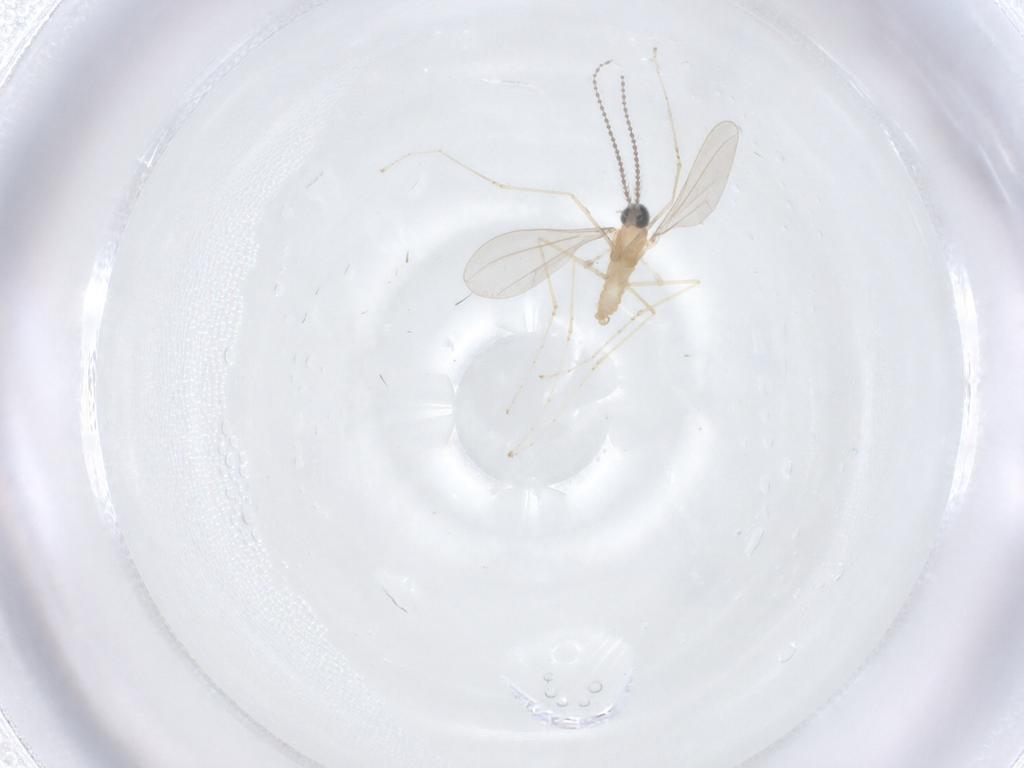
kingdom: Animalia
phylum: Arthropoda
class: Insecta
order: Diptera
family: Cecidomyiidae
